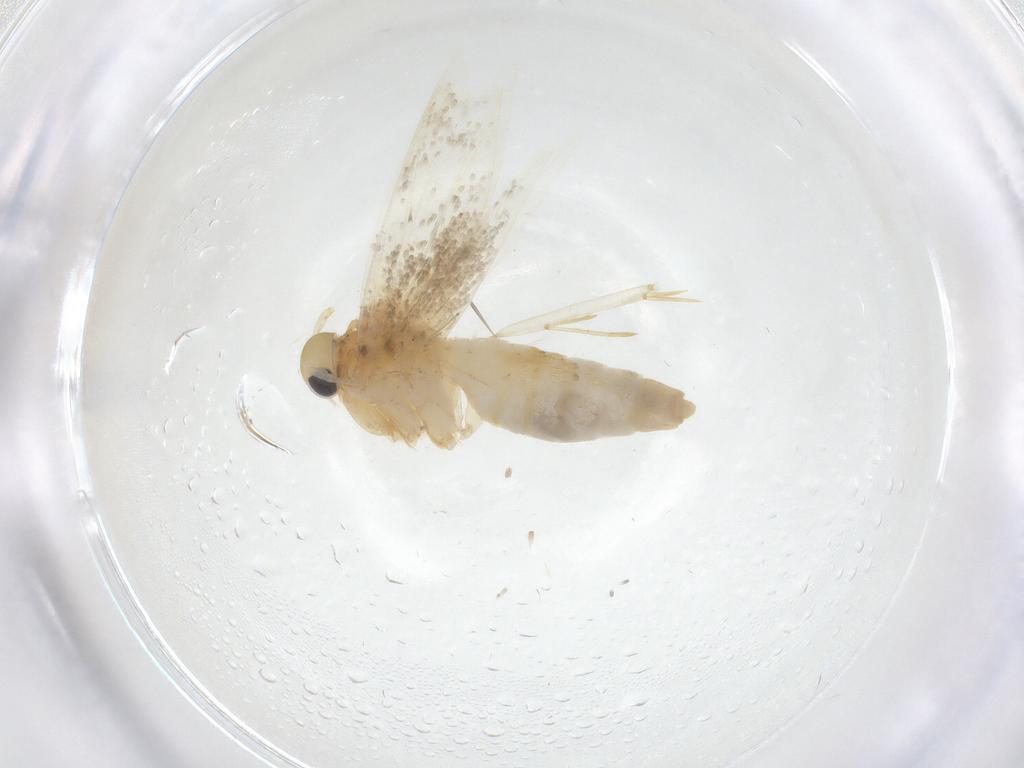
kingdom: Animalia
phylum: Arthropoda
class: Insecta
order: Lepidoptera
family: Erebidae
